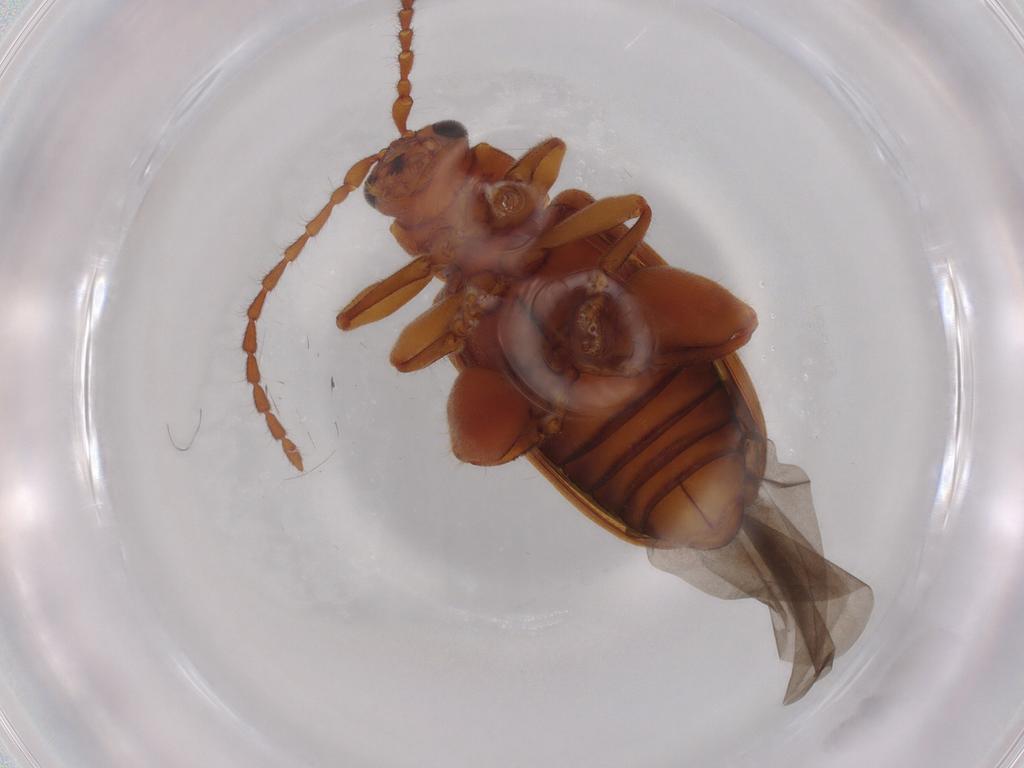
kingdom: Animalia
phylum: Arthropoda
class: Insecta
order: Coleoptera
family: Chrysomelidae
